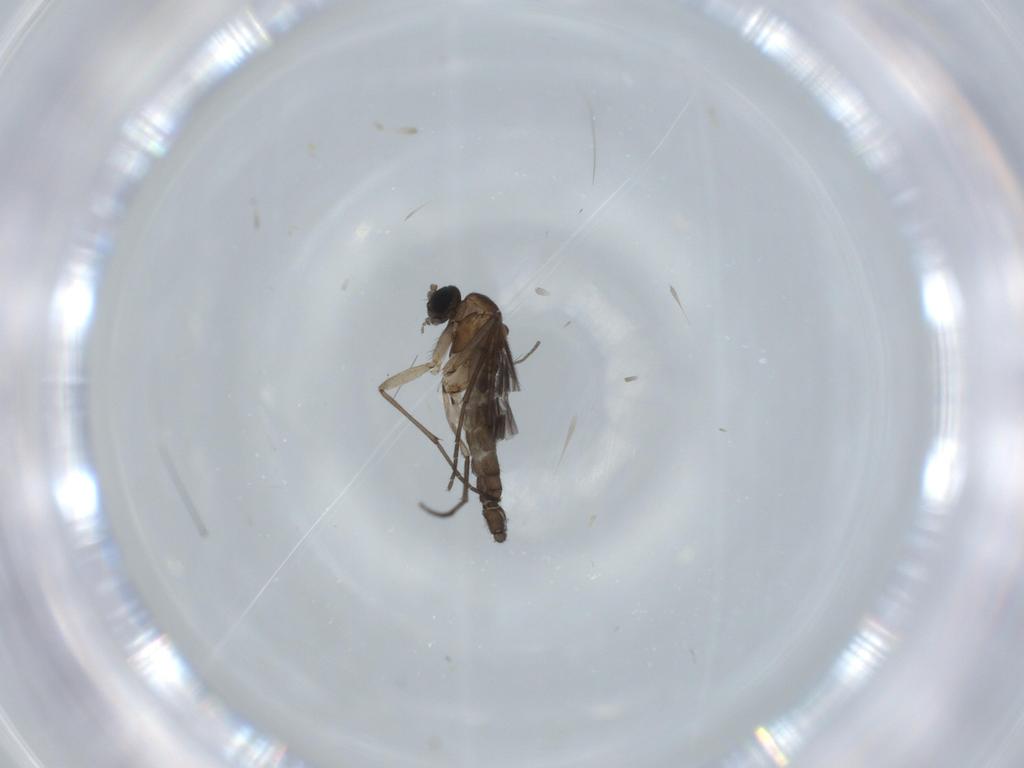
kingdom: Animalia
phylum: Arthropoda
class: Insecta
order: Diptera
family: Sciaridae
